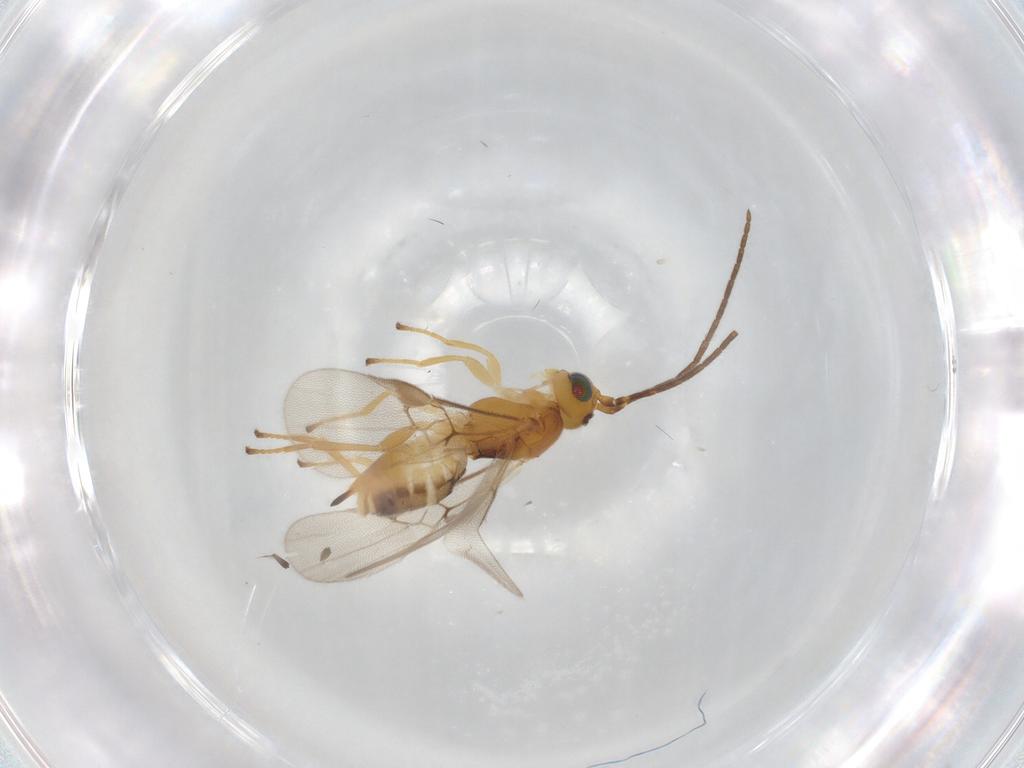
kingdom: Animalia
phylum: Arthropoda
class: Insecta
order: Hymenoptera
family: Braconidae
